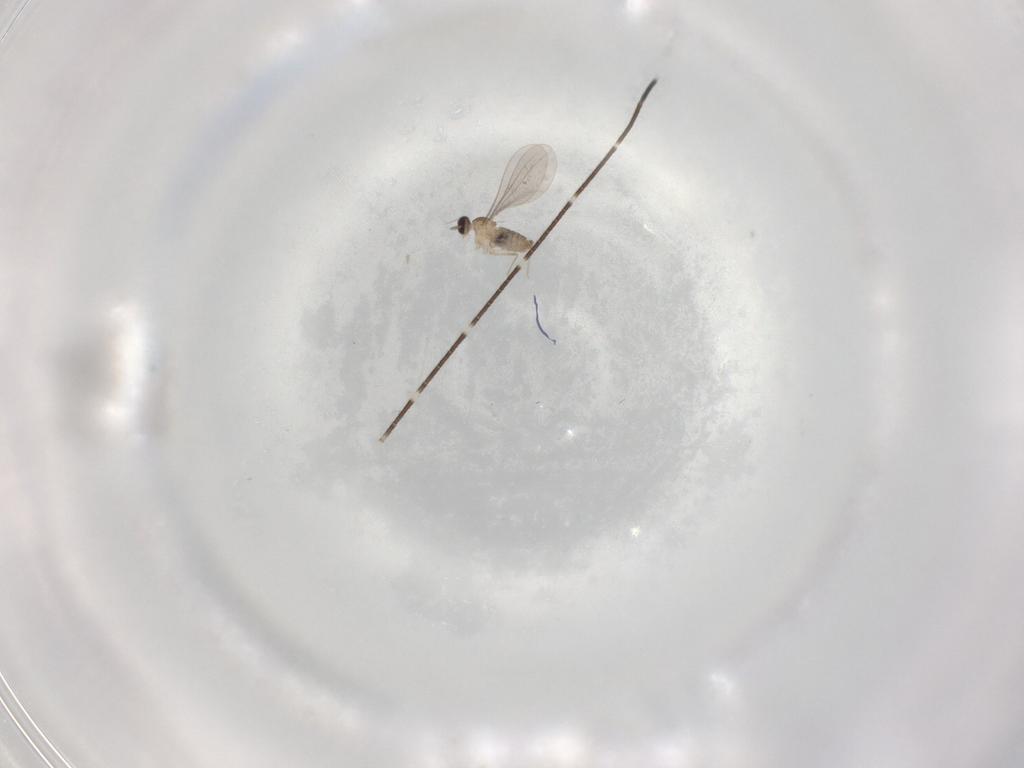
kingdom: Animalia
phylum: Arthropoda
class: Insecta
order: Diptera
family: Cecidomyiidae
